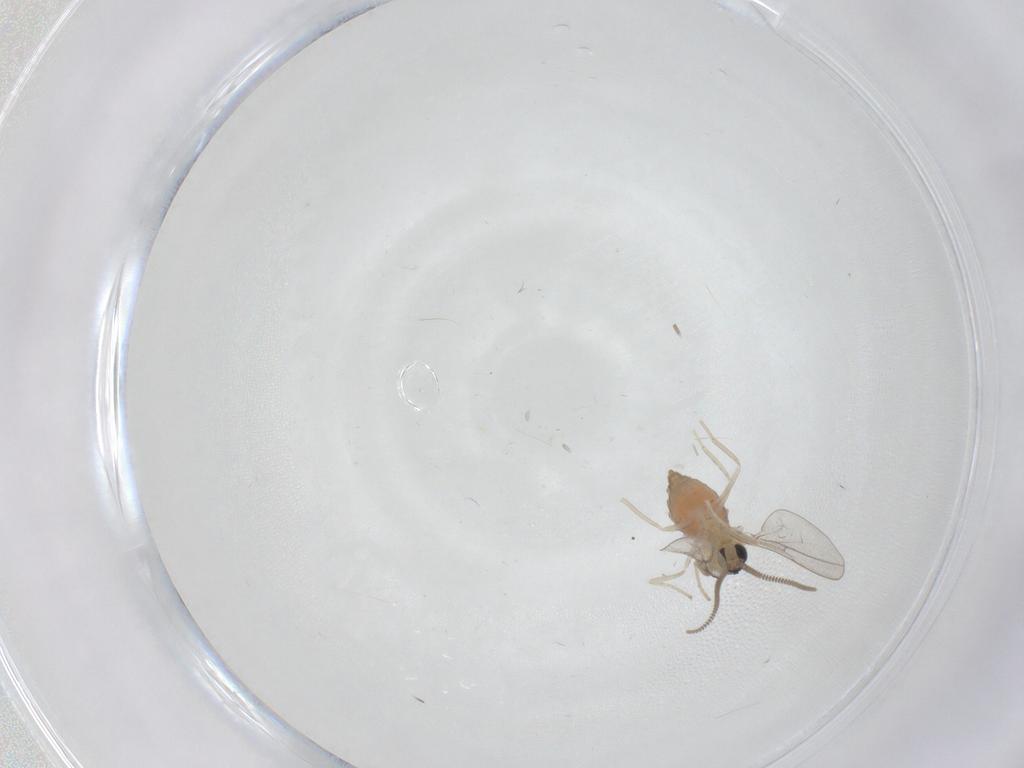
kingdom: Animalia
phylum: Arthropoda
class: Insecta
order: Diptera
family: Cecidomyiidae
